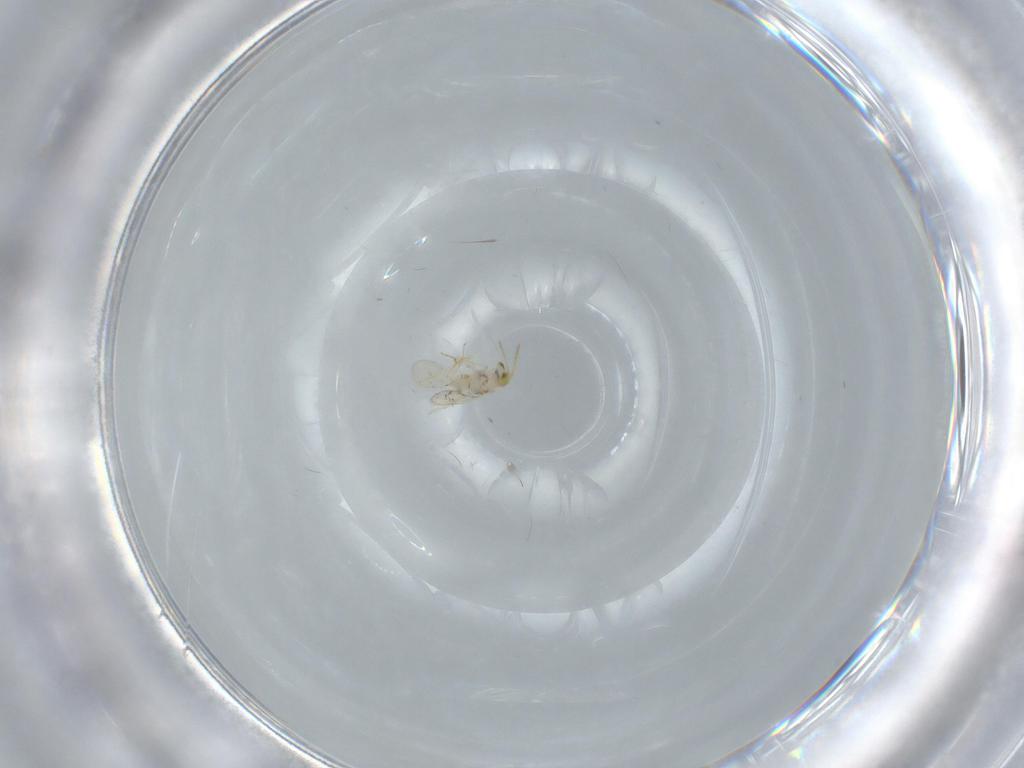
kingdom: Animalia
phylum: Arthropoda
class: Insecta
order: Hymenoptera
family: Aphelinidae
